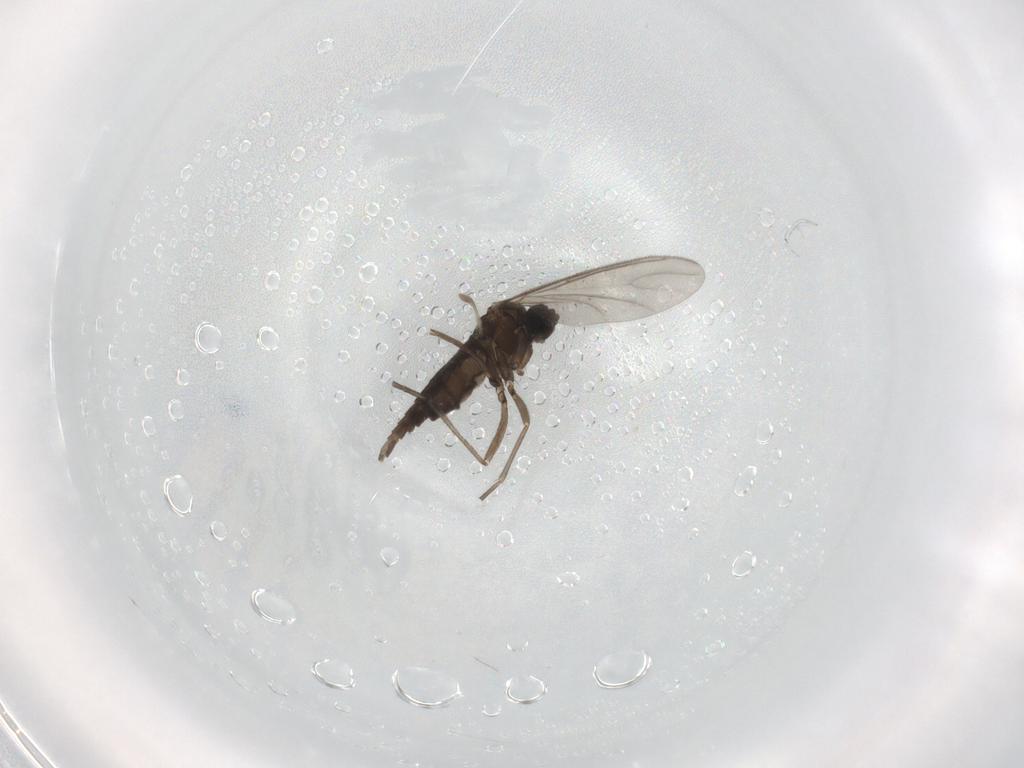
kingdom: Animalia
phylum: Arthropoda
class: Insecta
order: Diptera
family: Sciaridae
